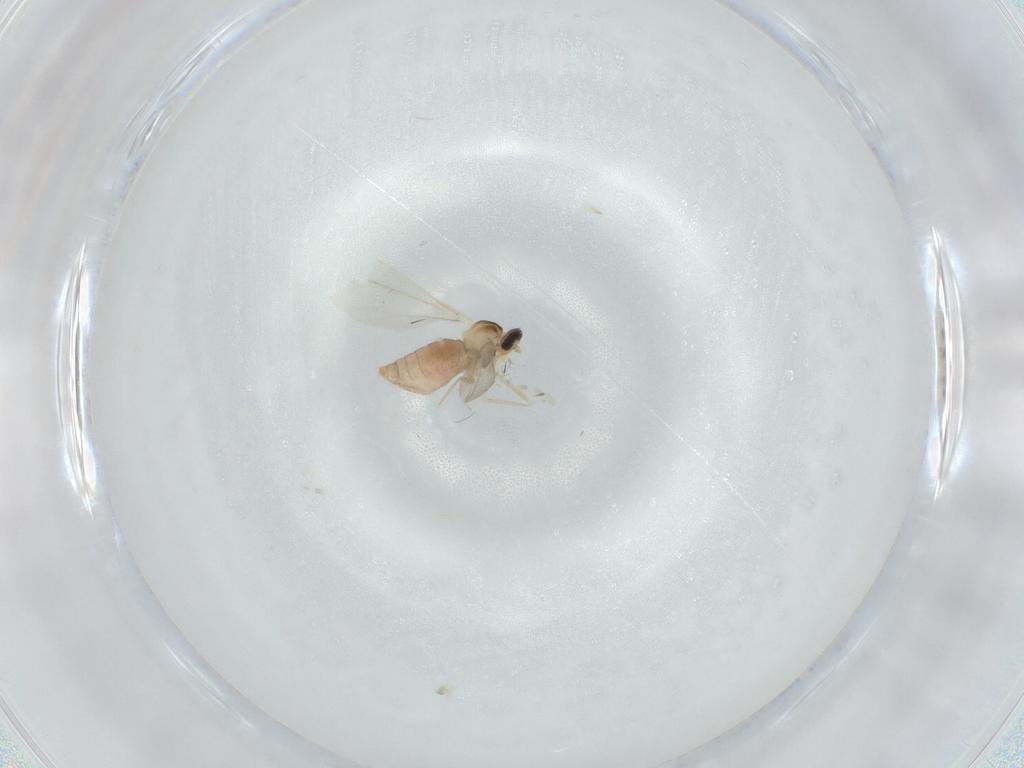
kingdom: Animalia
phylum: Arthropoda
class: Insecta
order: Diptera
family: Cecidomyiidae
